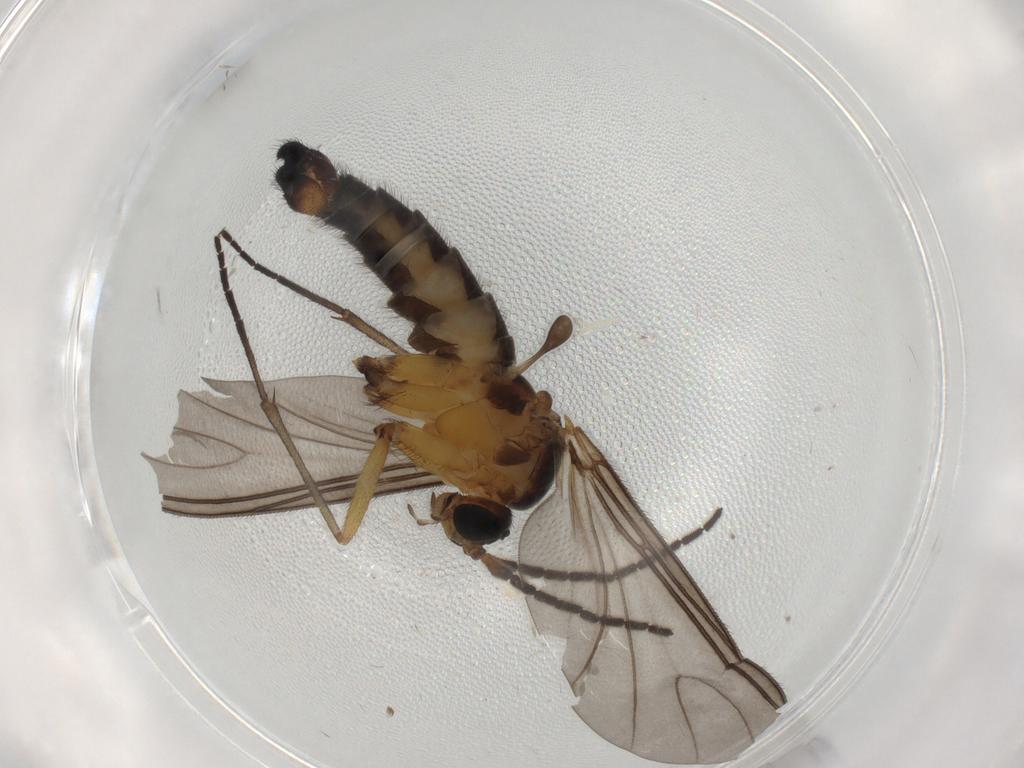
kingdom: Animalia
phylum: Arthropoda
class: Insecta
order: Diptera
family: Sciaridae
